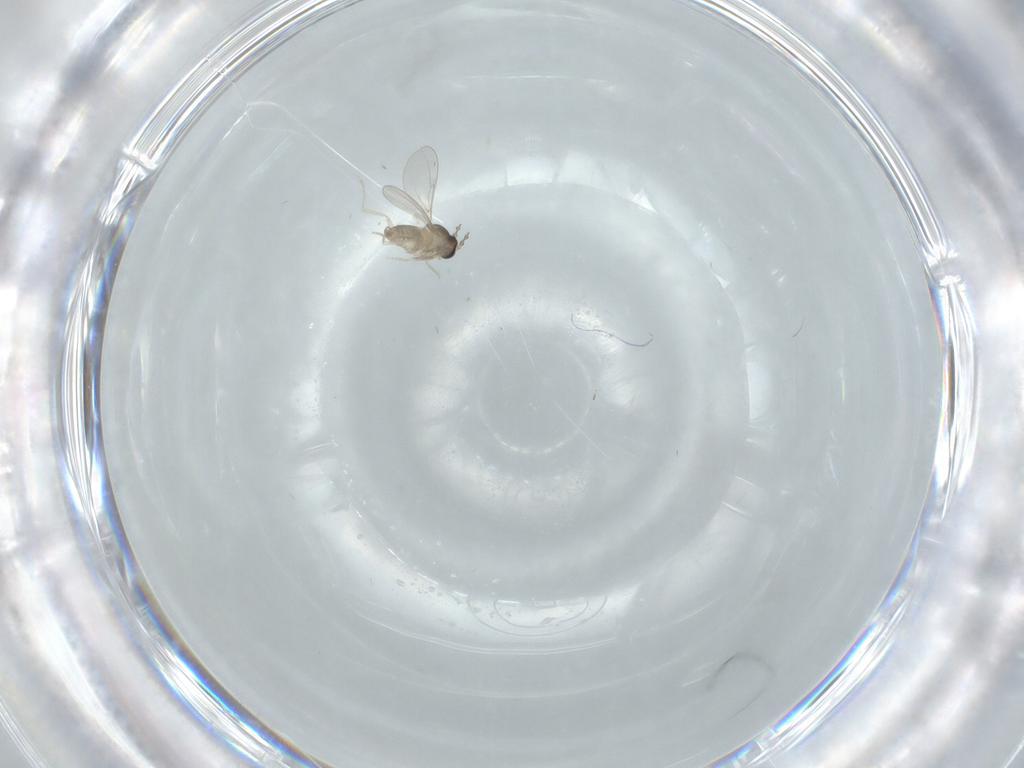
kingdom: Animalia
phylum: Arthropoda
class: Insecta
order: Diptera
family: Cecidomyiidae
